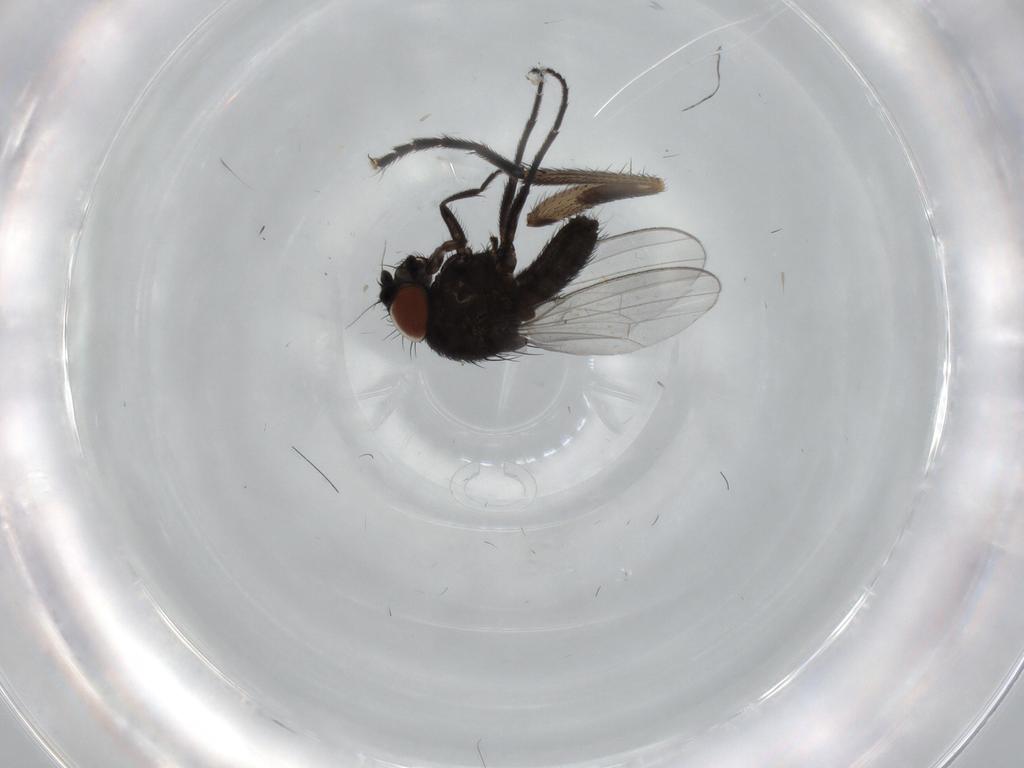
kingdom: Animalia
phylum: Arthropoda
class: Insecta
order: Diptera
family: Fannia
